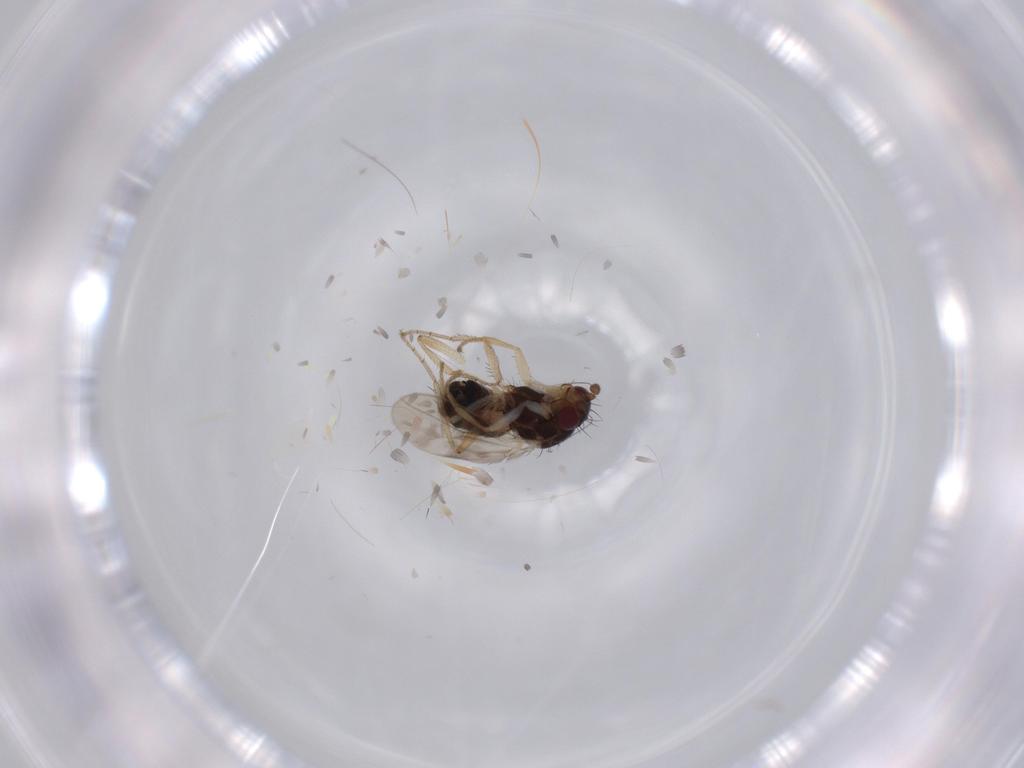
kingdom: Animalia
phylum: Arthropoda
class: Insecta
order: Diptera
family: Sphaeroceridae
